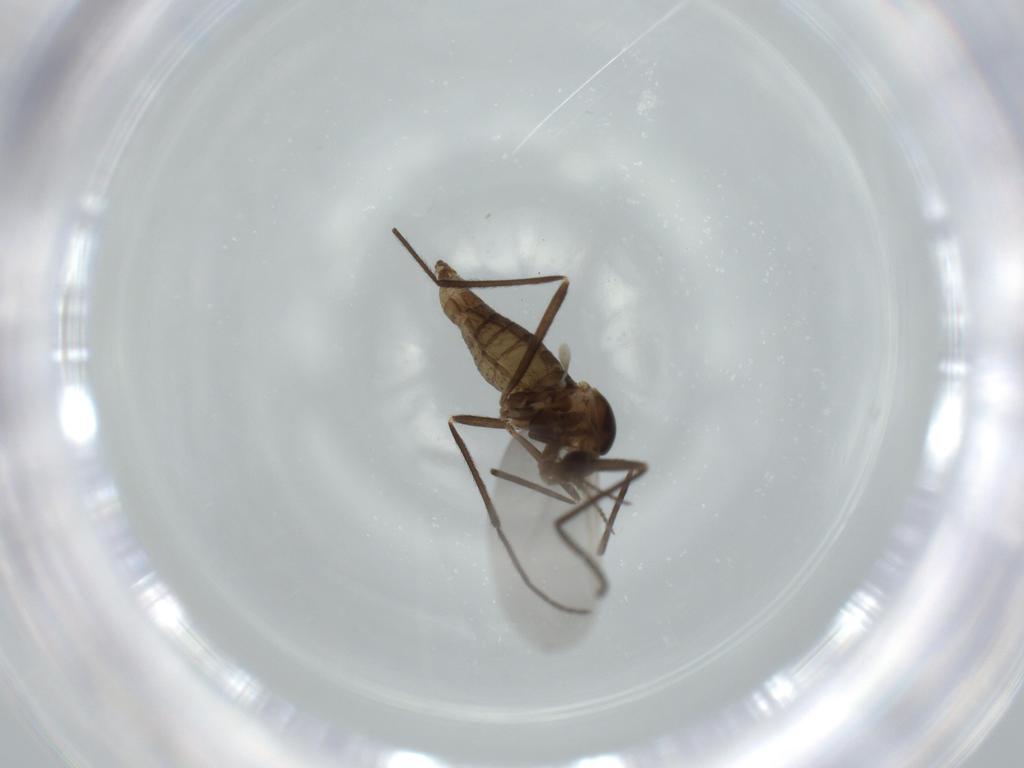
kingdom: Animalia
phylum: Arthropoda
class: Insecta
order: Diptera
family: Cecidomyiidae
